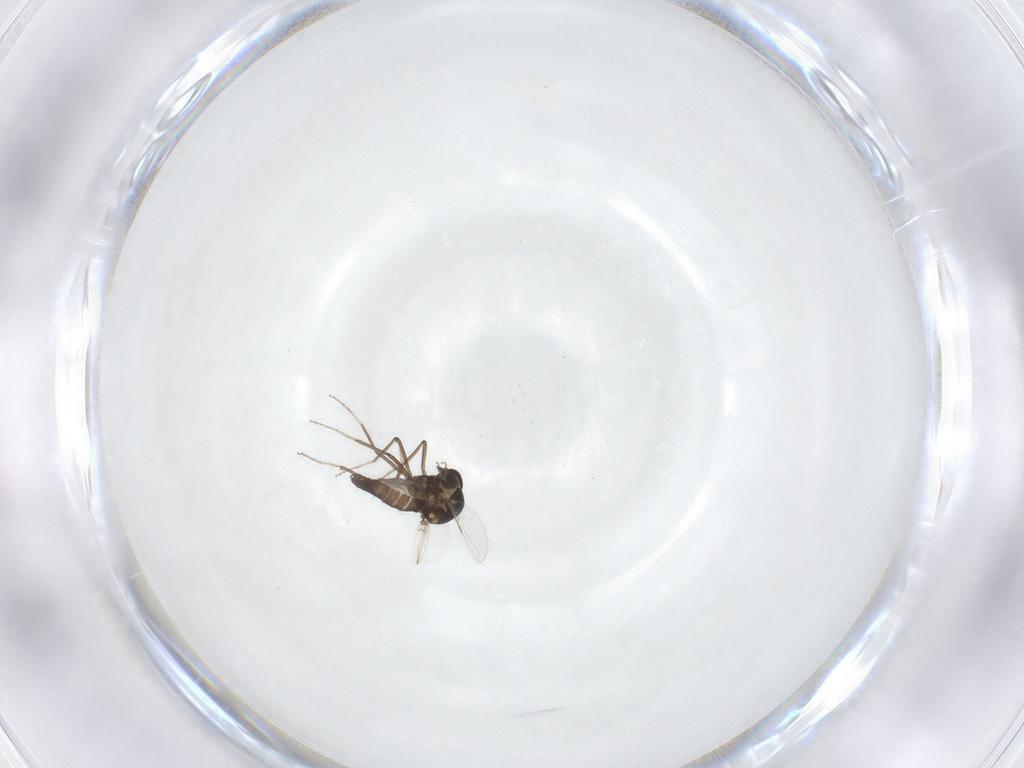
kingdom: Animalia
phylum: Arthropoda
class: Insecta
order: Diptera
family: Ceratopogonidae
